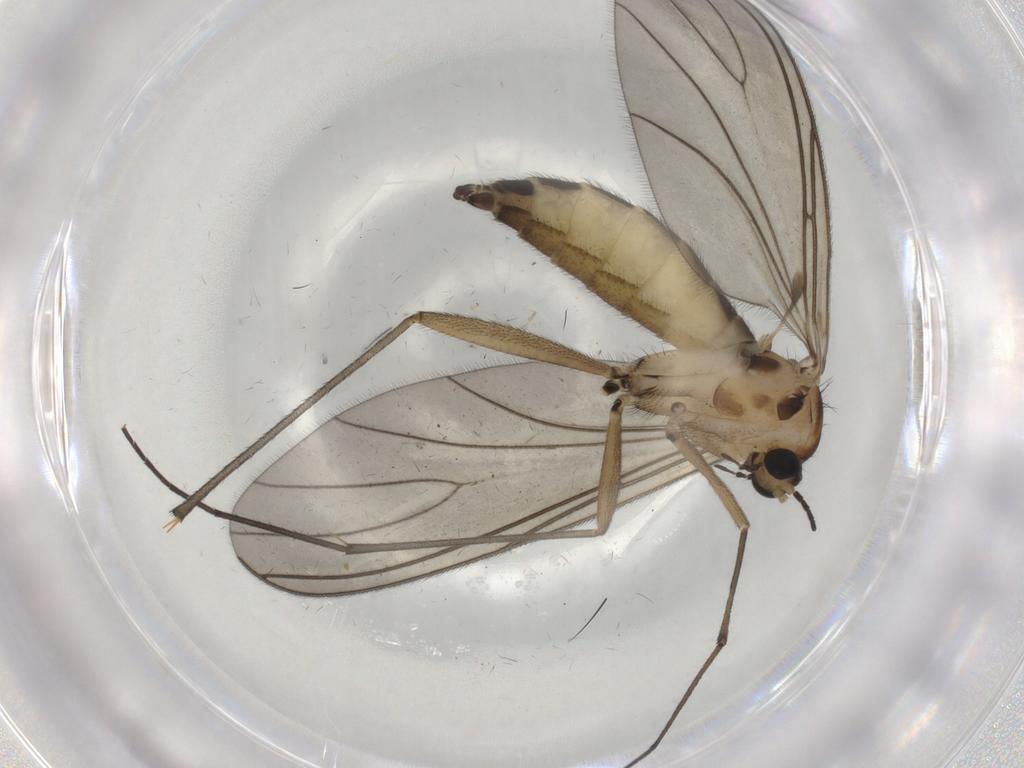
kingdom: Animalia
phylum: Arthropoda
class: Insecta
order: Diptera
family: Sciaridae
